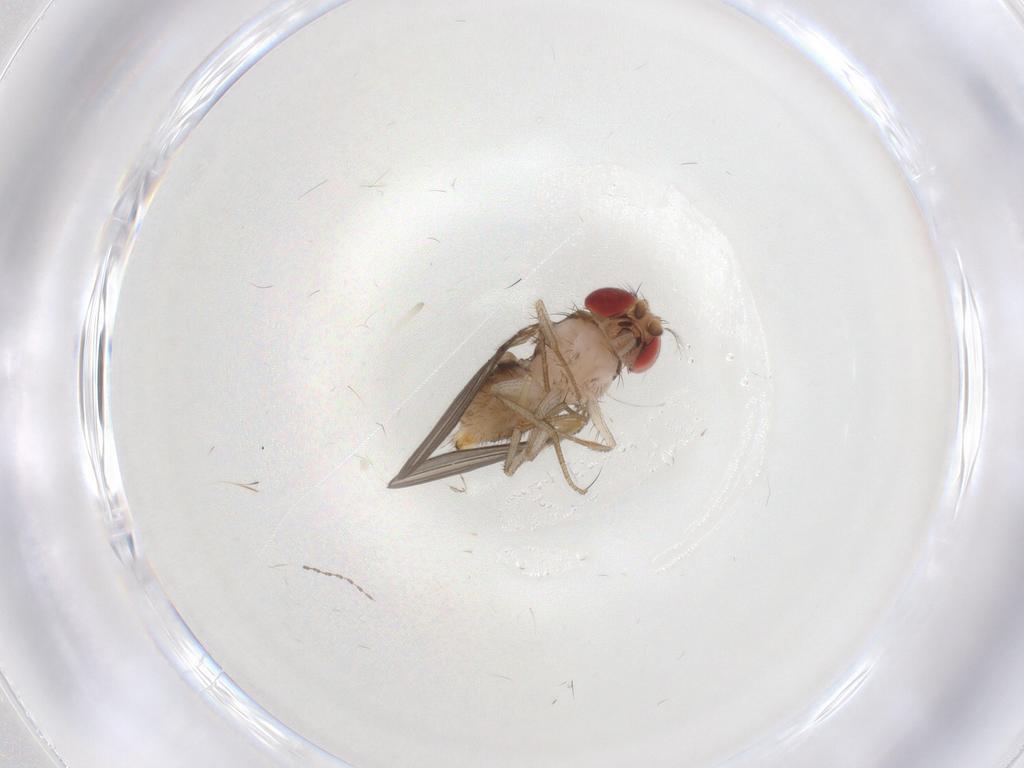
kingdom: Animalia
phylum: Arthropoda
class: Insecta
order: Diptera
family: Drosophilidae
